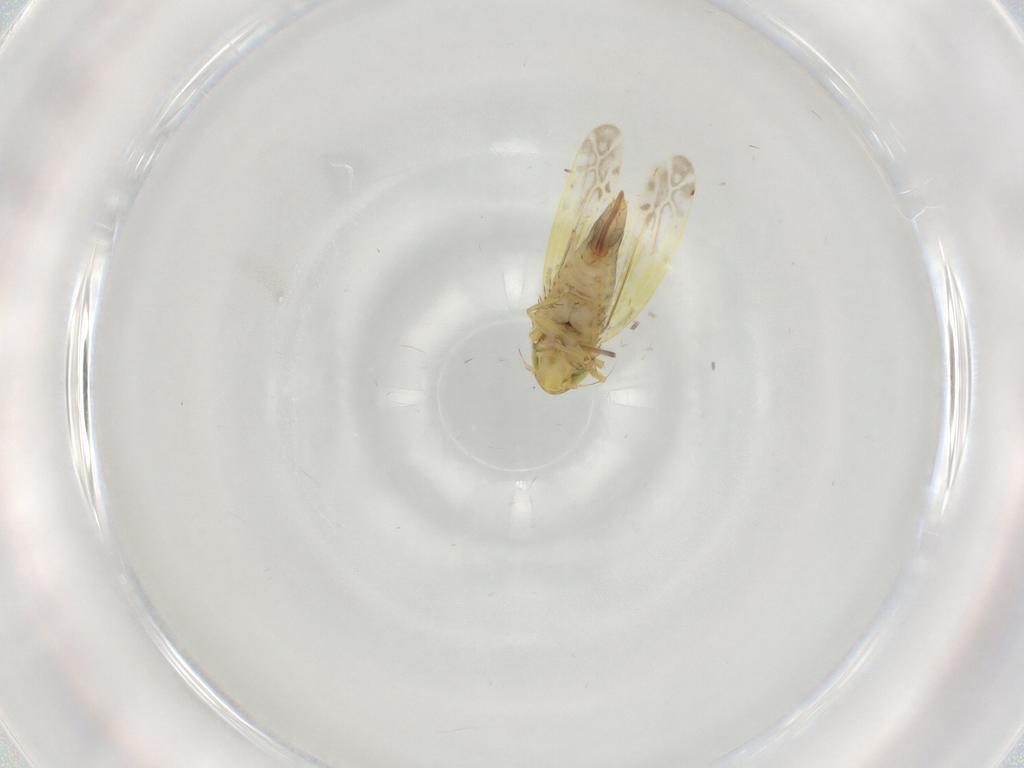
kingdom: Animalia
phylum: Arthropoda
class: Insecta
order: Hemiptera
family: Cicadellidae
